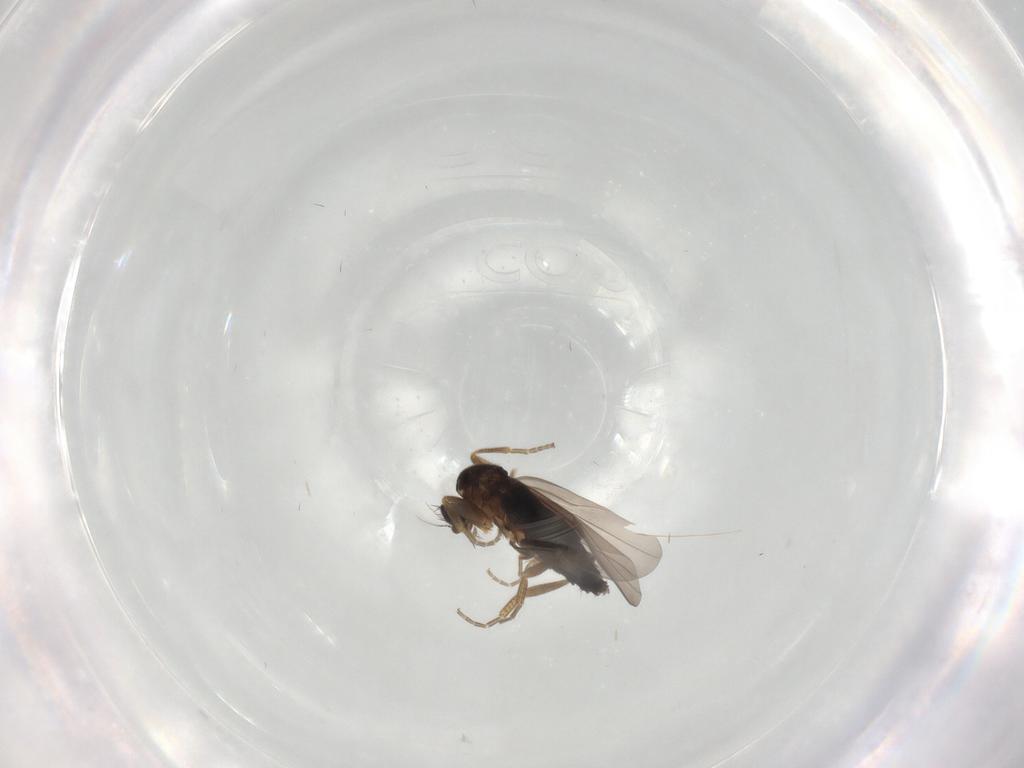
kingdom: Animalia
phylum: Arthropoda
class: Insecta
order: Diptera
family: Phoridae
